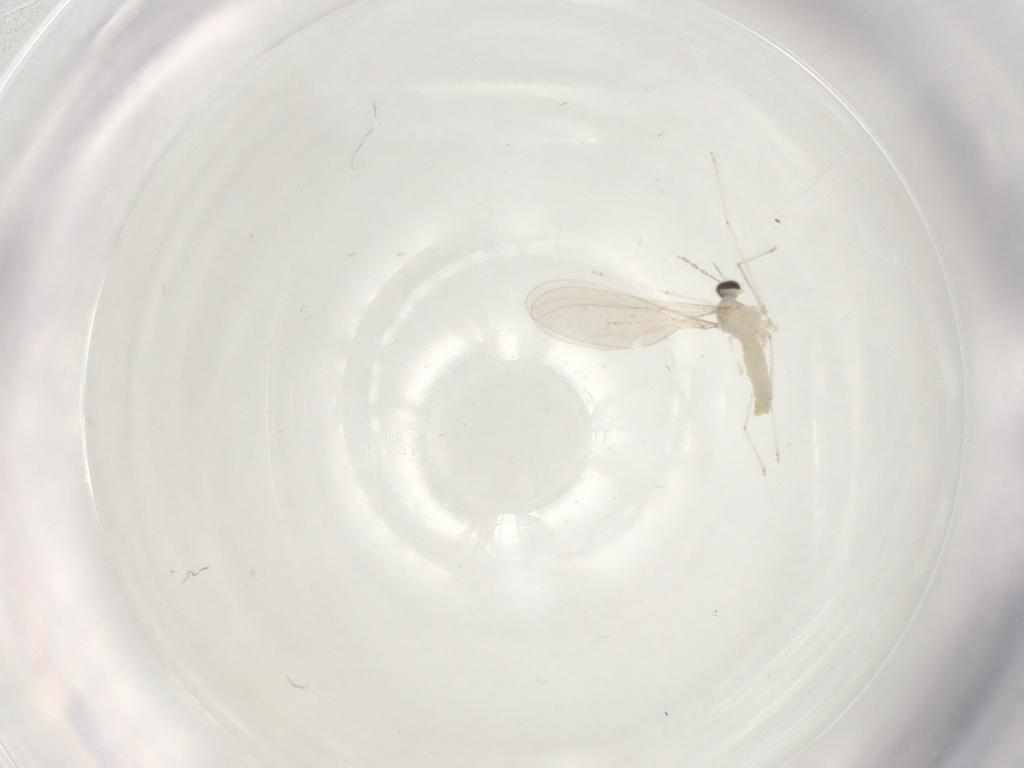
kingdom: Animalia
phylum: Arthropoda
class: Insecta
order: Diptera
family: Cecidomyiidae
